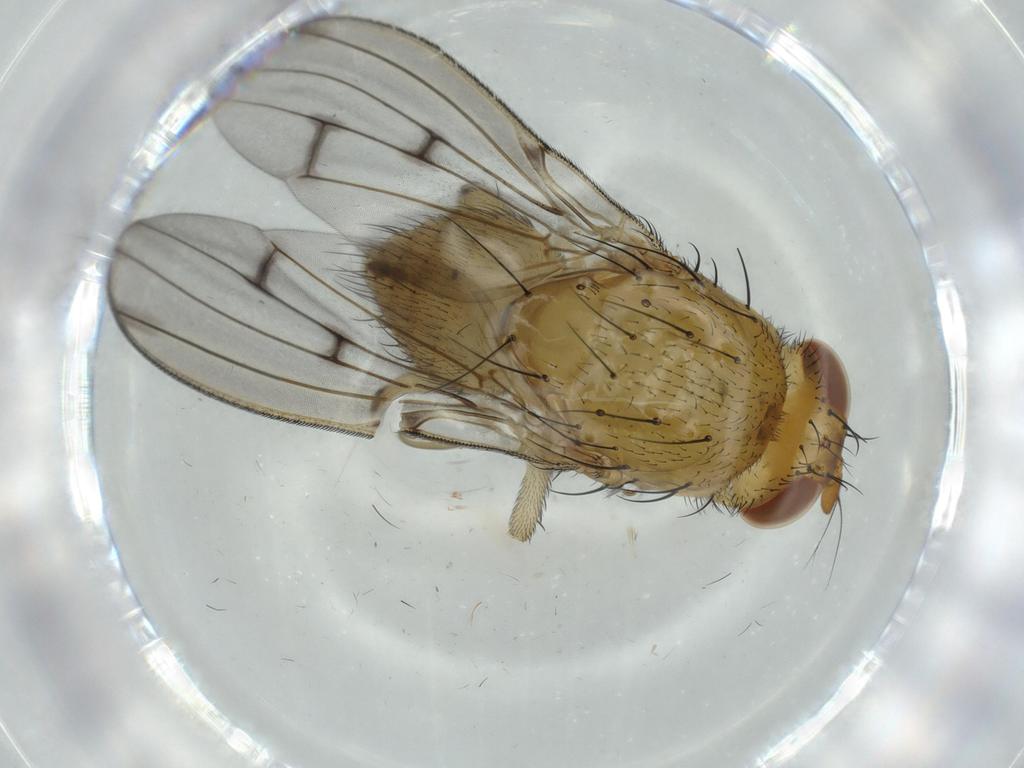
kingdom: Animalia
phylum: Arthropoda
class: Insecta
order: Diptera
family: Lauxaniidae
